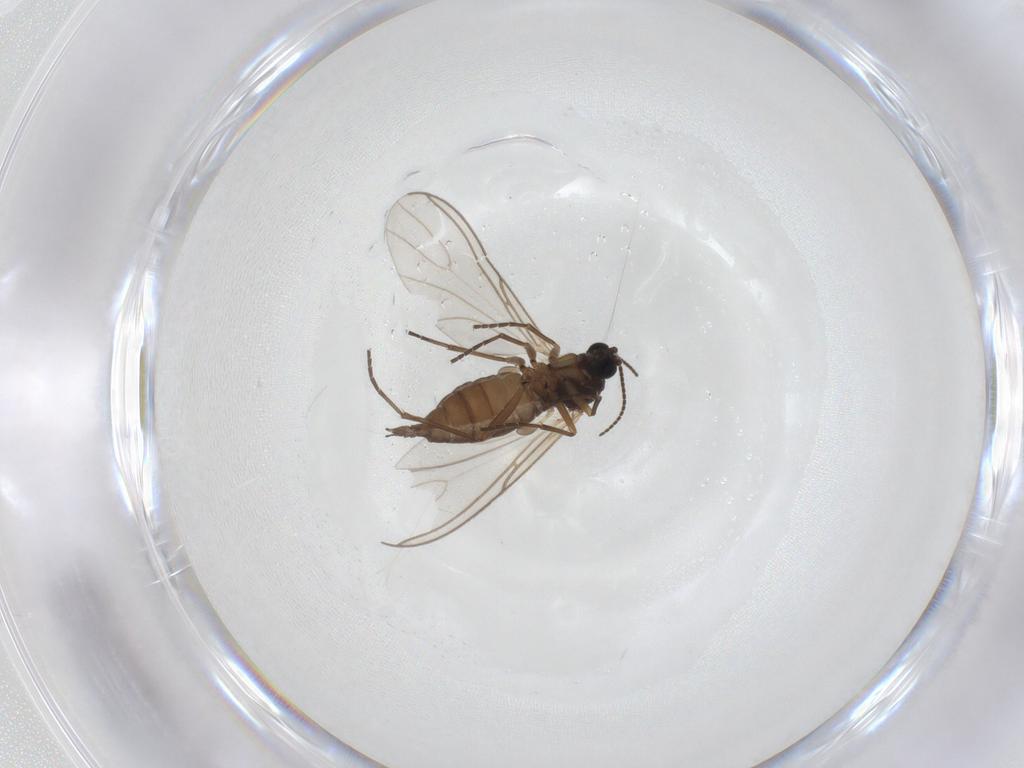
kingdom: Animalia
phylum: Arthropoda
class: Insecta
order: Diptera
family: Sciaridae
